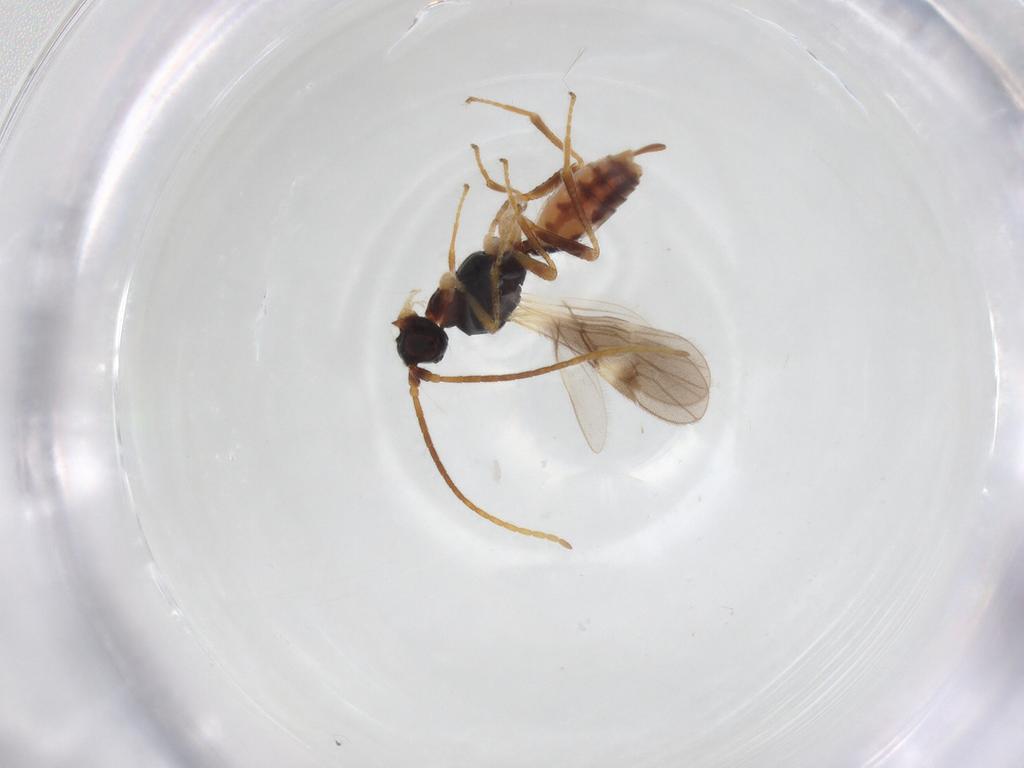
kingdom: Animalia
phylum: Arthropoda
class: Insecta
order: Hymenoptera
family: Braconidae
